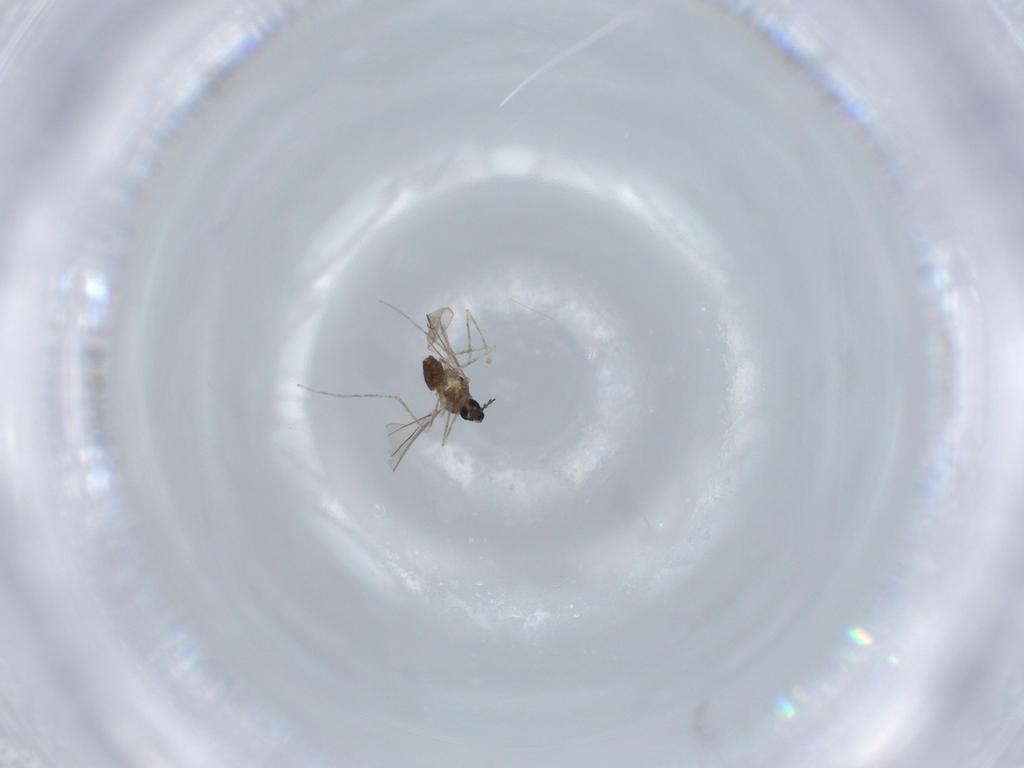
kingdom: Animalia
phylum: Arthropoda
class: Insecta
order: Diptera
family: Cecidomyiidae
